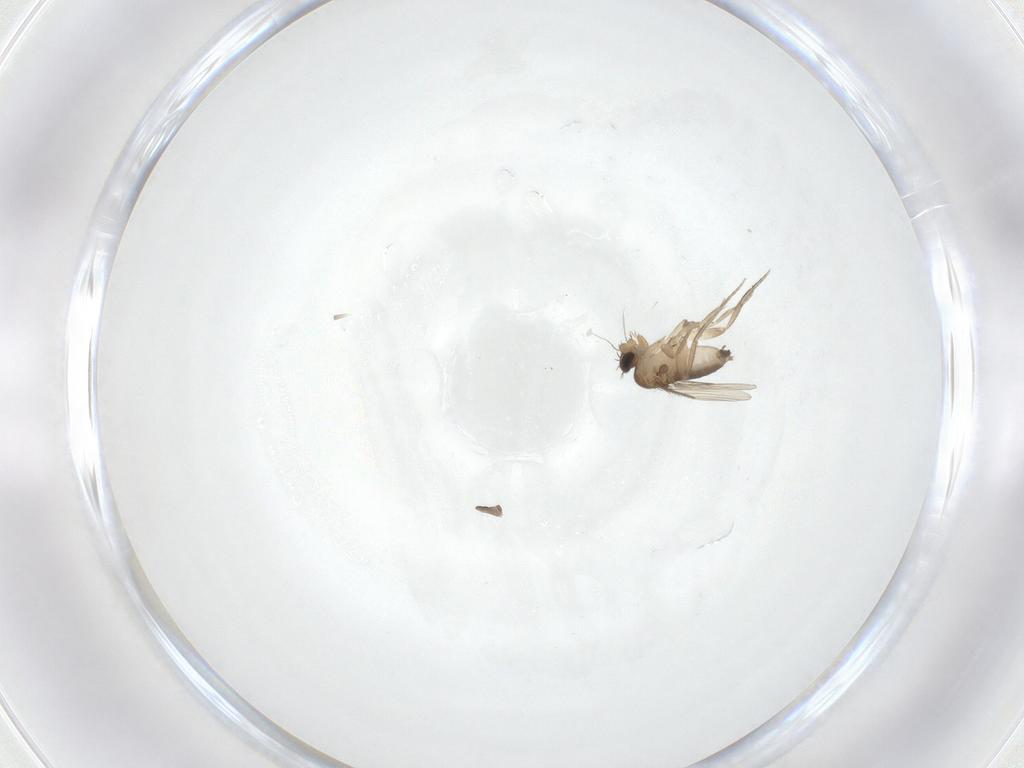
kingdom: Animalia
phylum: Arthropoda
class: Insecta
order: Diptera
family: Phoridae
